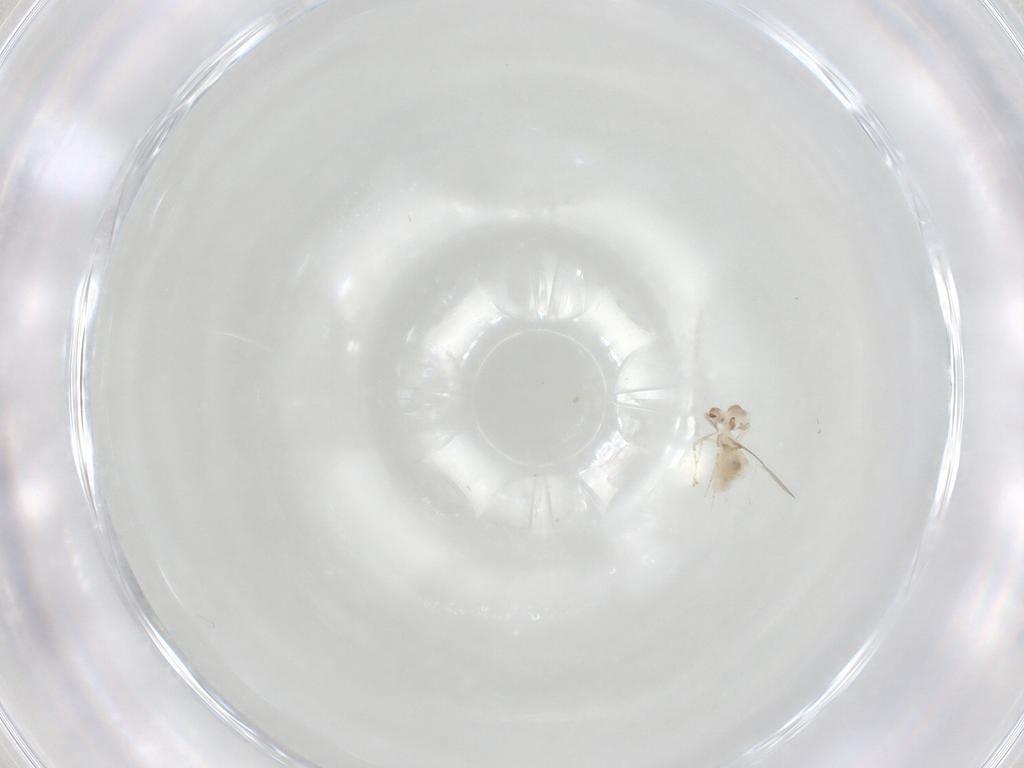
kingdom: Animalia
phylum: Arthropoda
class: Insecta
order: Diptera
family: Cecidomyiidae
